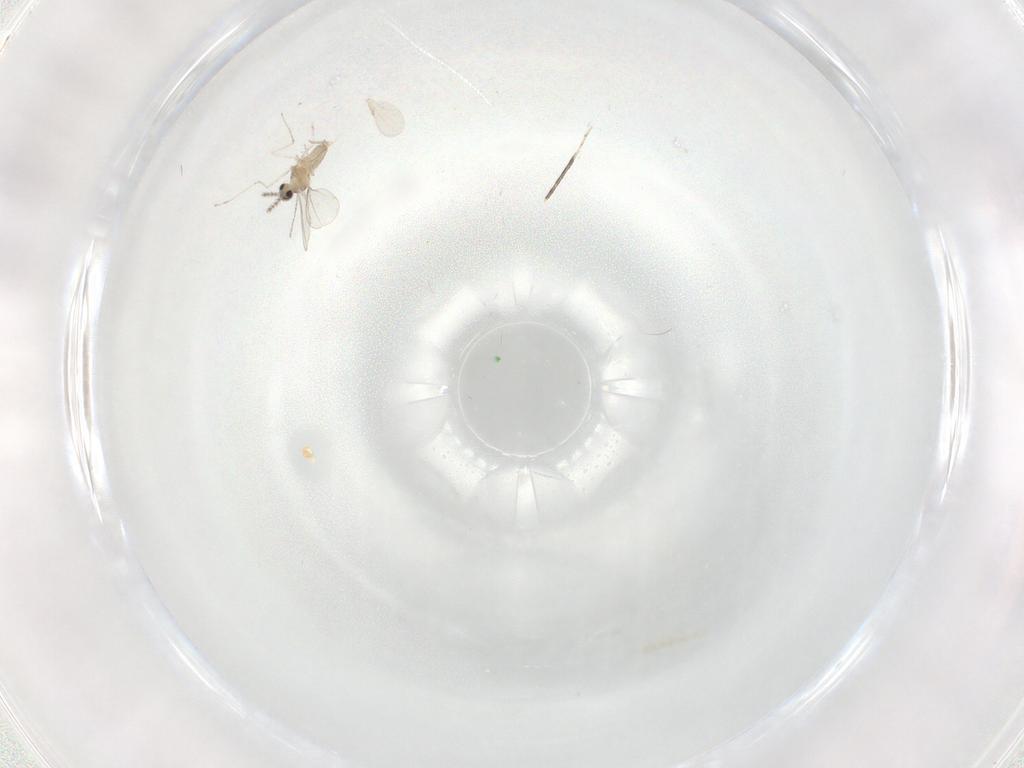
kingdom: Animalia
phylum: Arthropoda
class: Insecta
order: Diptera
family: Cecidomyiidae
